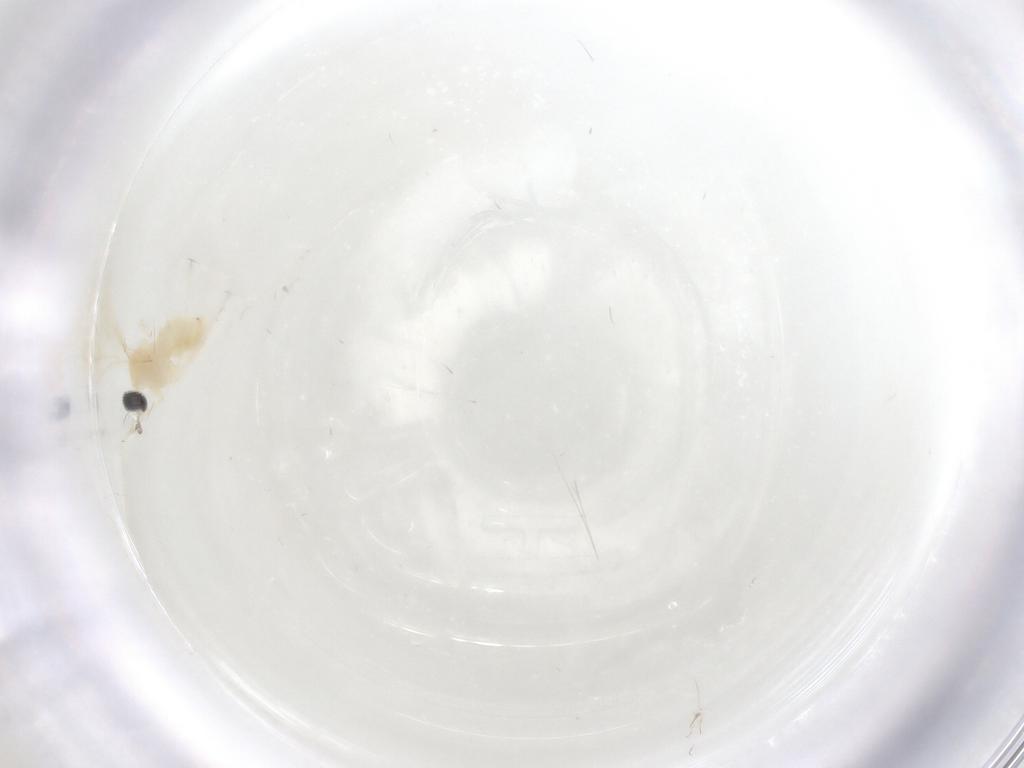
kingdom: Animalia
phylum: Arthropoda
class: Insecta
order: Diptera
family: Cecidomyiidae
